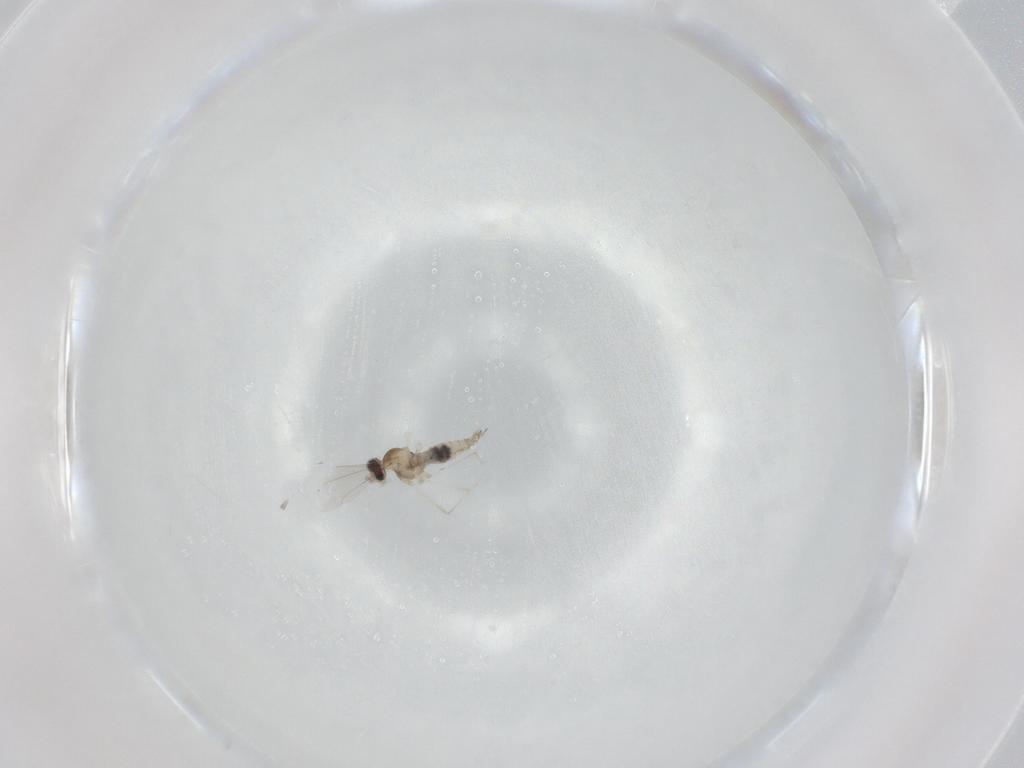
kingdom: Animalia
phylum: Arthropoda
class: Insecta
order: Diptera
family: Cecidomyiidae
